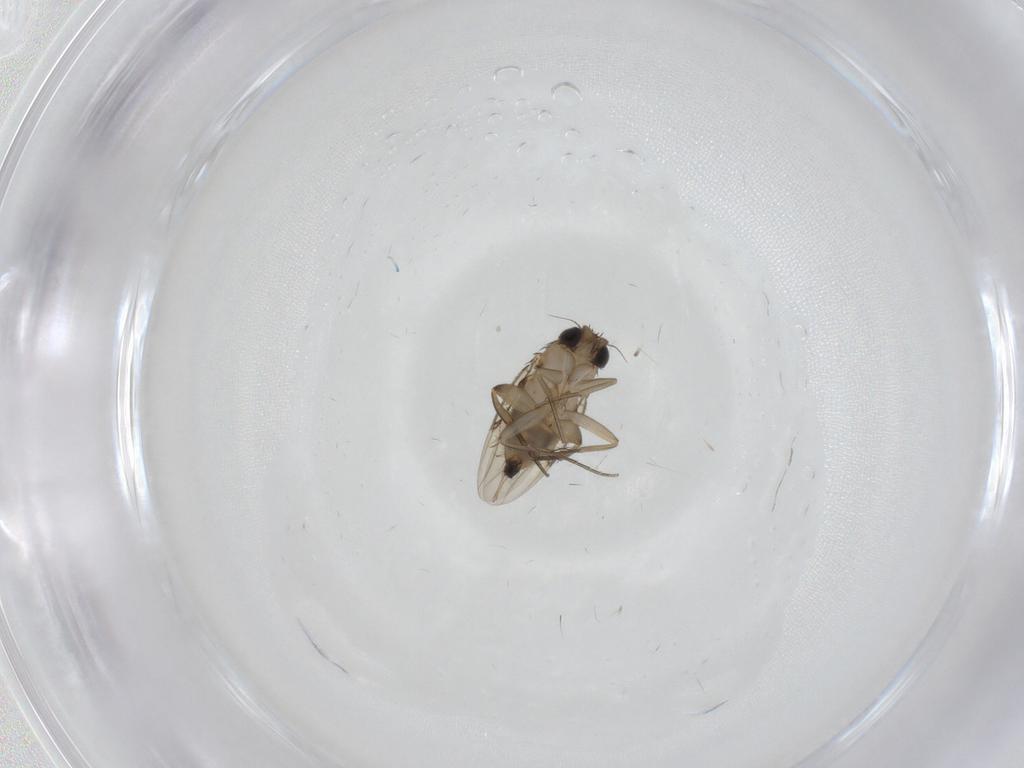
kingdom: Animalia
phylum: Arthropoda
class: Insecta
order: Diptera
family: Phoridae
